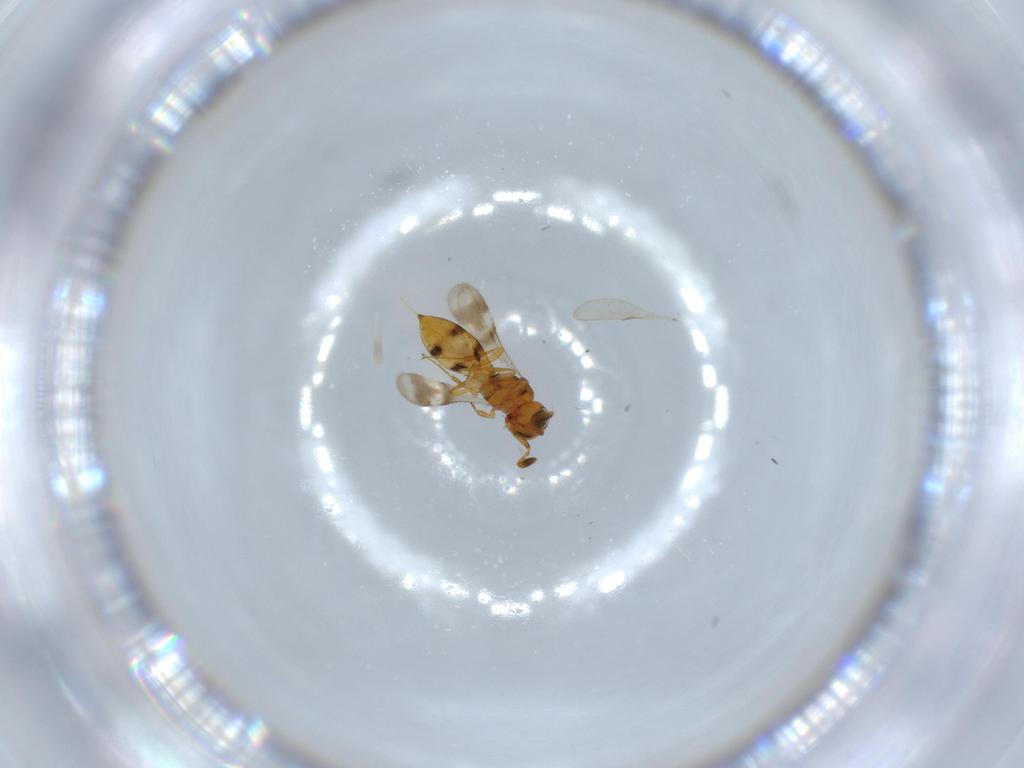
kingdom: Animalia
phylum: Arthropoda
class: Insecta
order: Hymenoptera
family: Scelionidae
